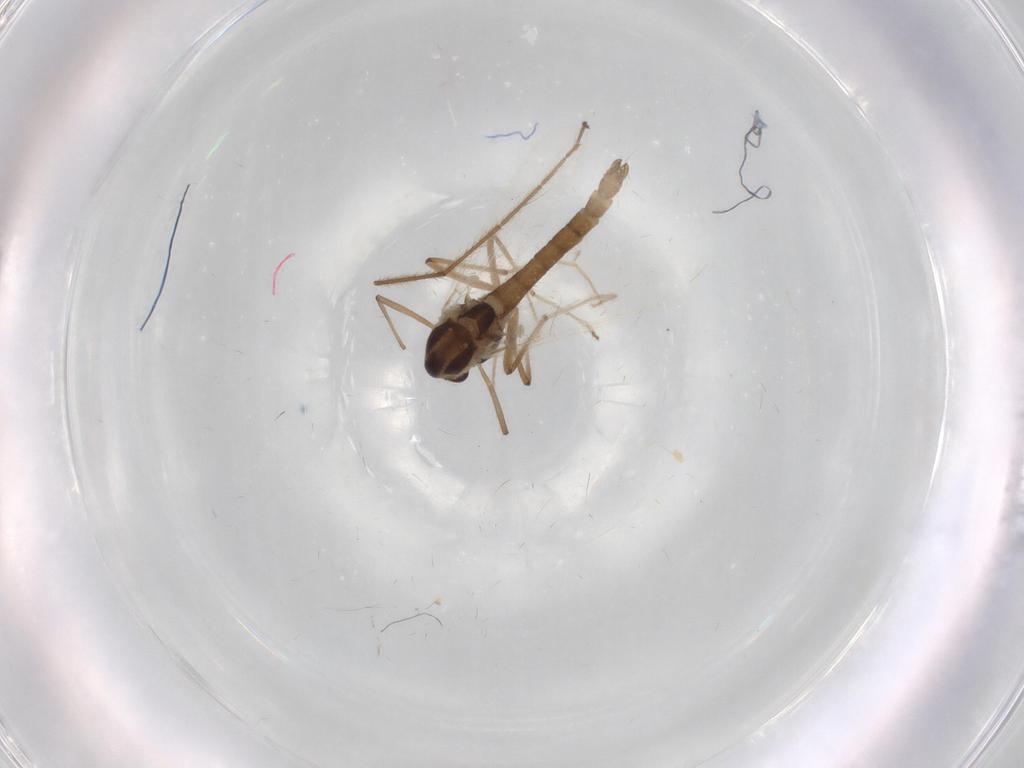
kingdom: Animalia
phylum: Arthropoda
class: Insecta
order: Diptera
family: Chironomidae
